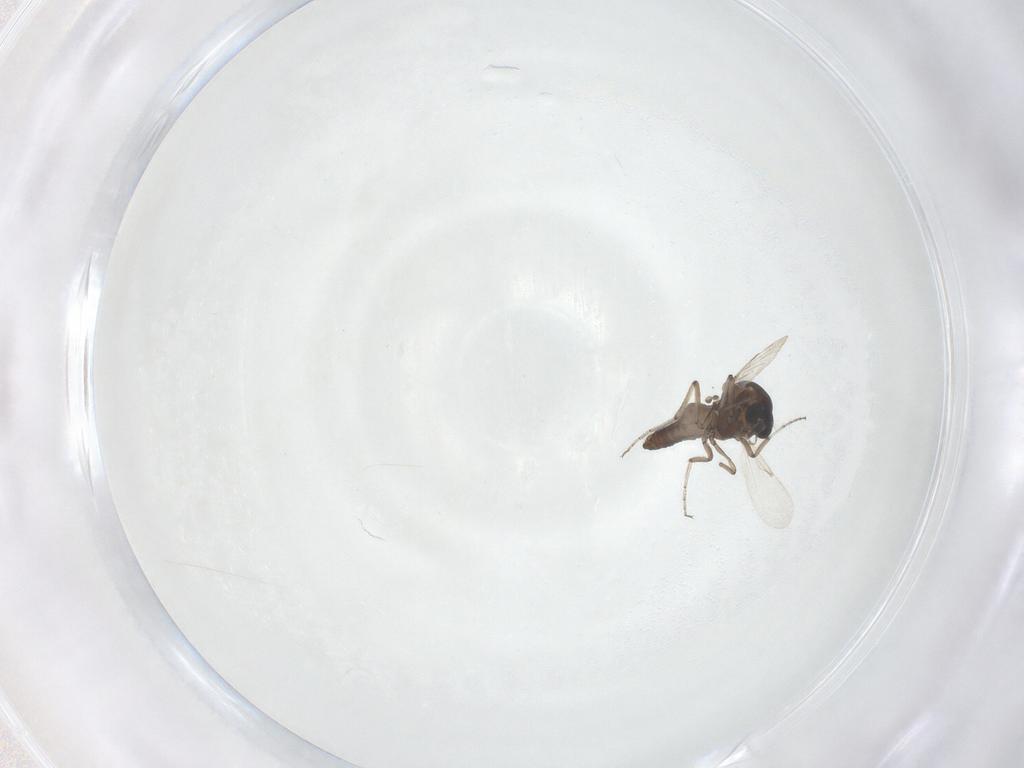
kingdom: Animalia
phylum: Arthropoda
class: Insecta
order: Diptera
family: Ceratopogonidae
